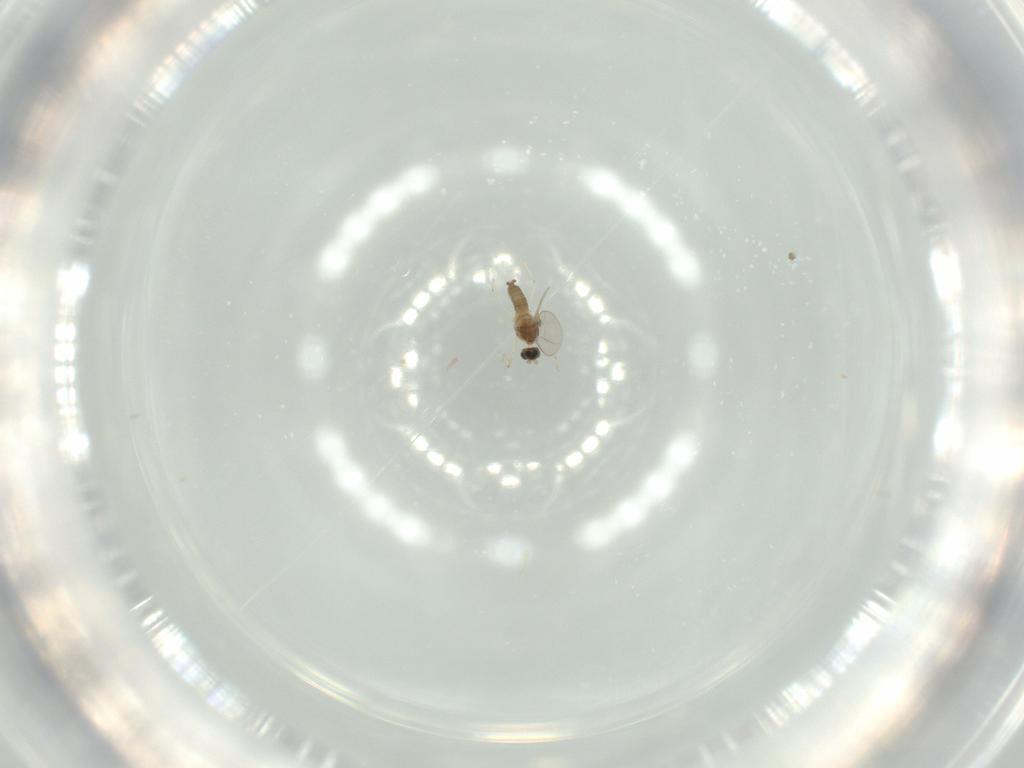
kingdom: Animalia
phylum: Arthropoda
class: Insecta
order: Diptera
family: Cecidomyiidae
